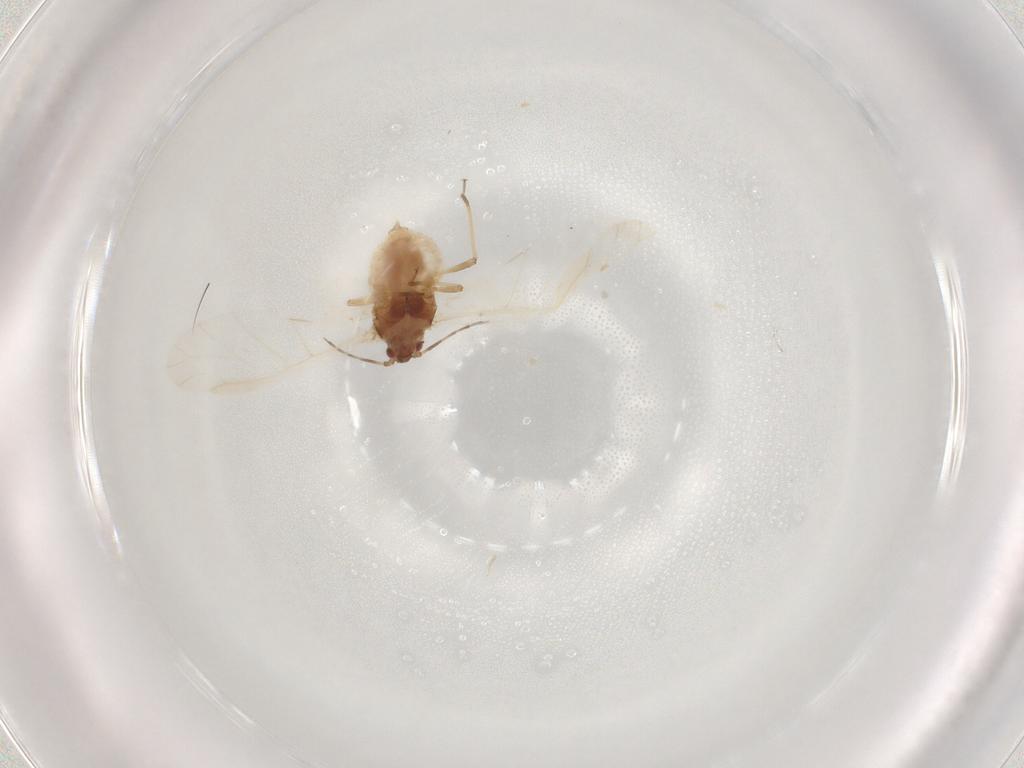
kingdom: Animalia
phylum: Arthropoda
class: Insecta
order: Hemiptera
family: Aphididae
